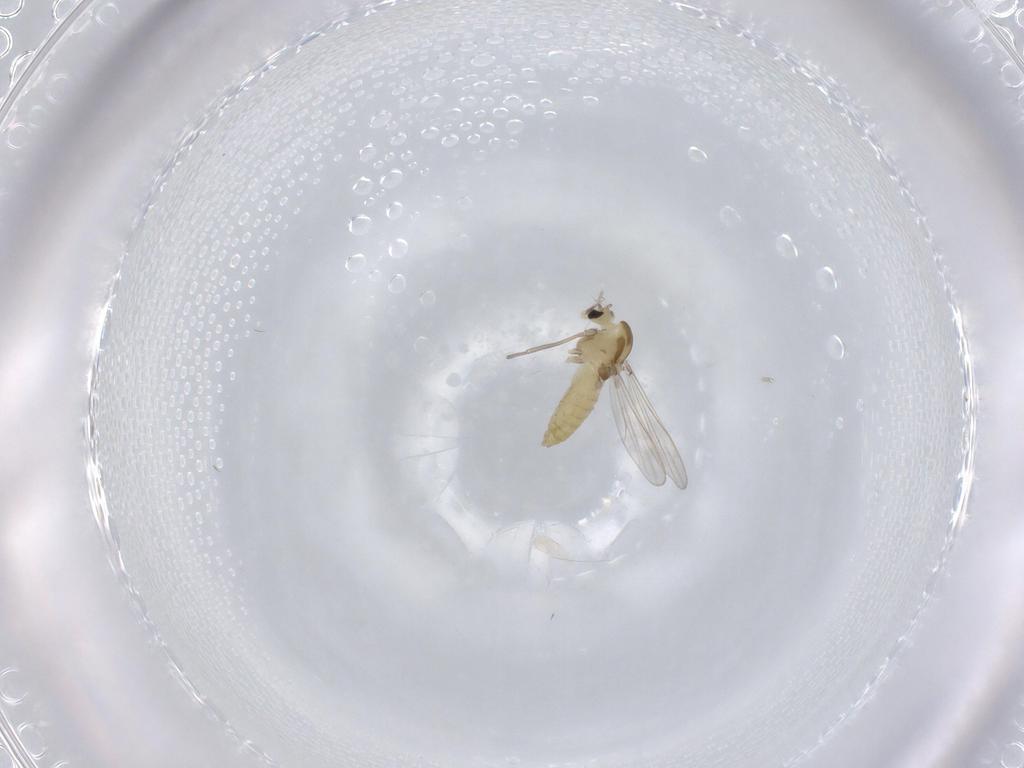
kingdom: Animalia
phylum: Arthropoda
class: Insecta
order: Diptera
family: Chironomidae
